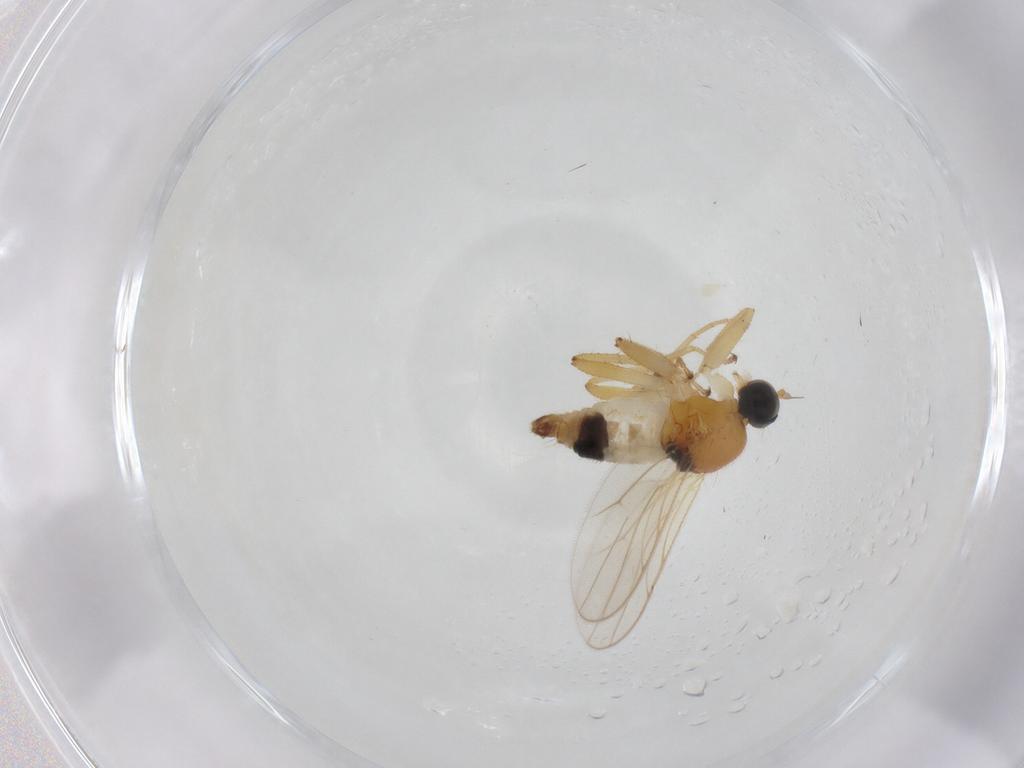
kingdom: Animalia
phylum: Arthropoda
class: Insecta
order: Diptera
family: Hybotidae
